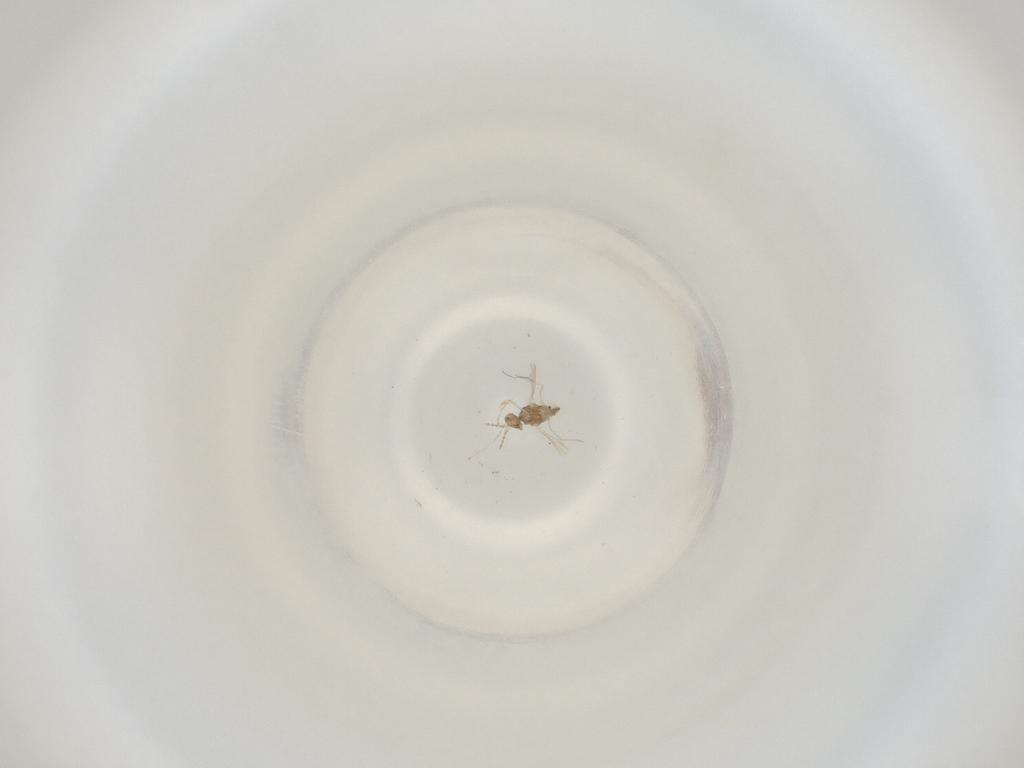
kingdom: Animalia
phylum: Arthropoda
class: Insecta
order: Diptera
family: Cecidomyiidae
